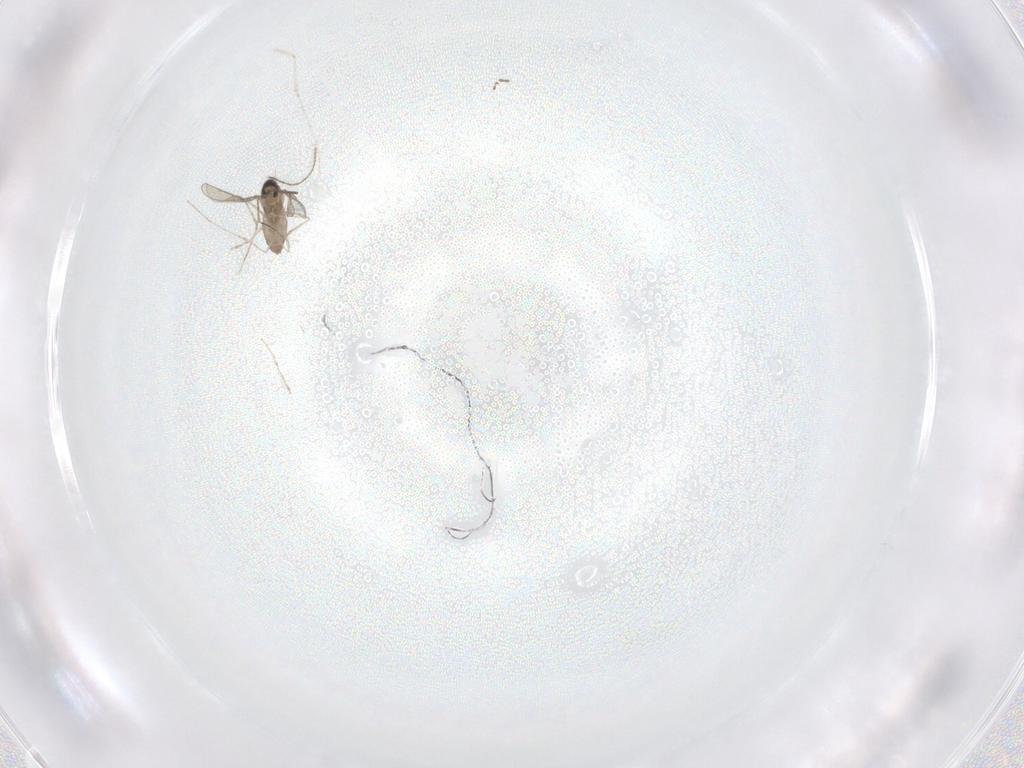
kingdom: Animalia
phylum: Arthropoda
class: Insecta
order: Diptera
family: Ceratopogonidae
